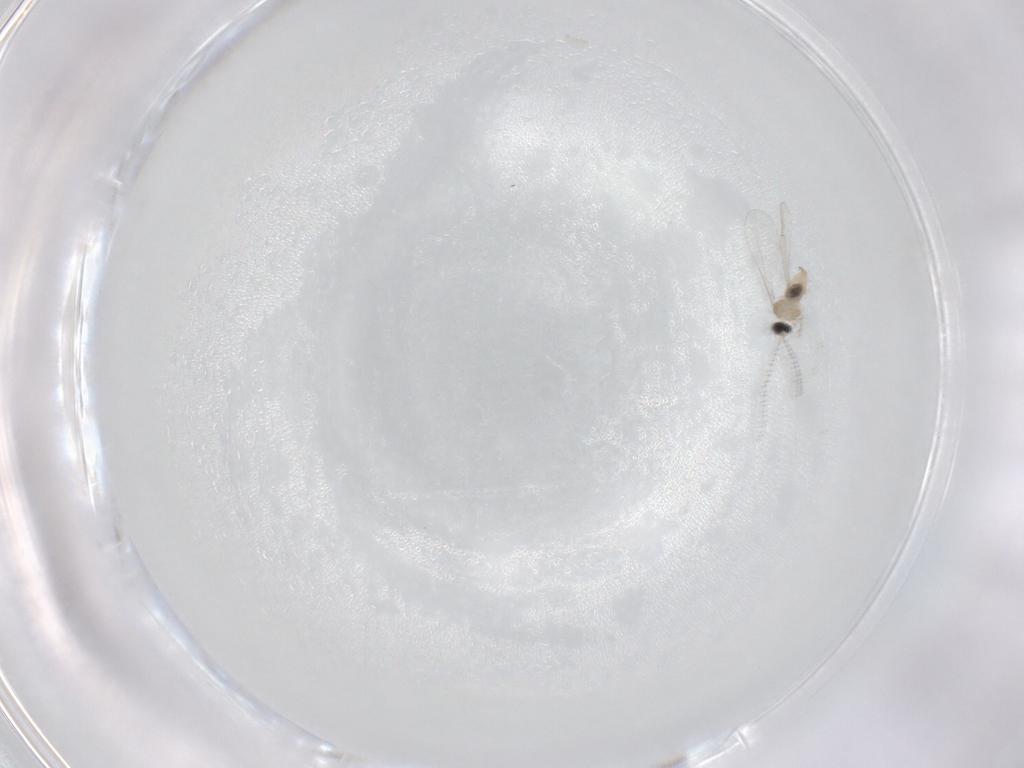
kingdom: Animalia
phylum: Arthropoda
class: Insecta
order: Diptera
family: Cecidomyiidae
